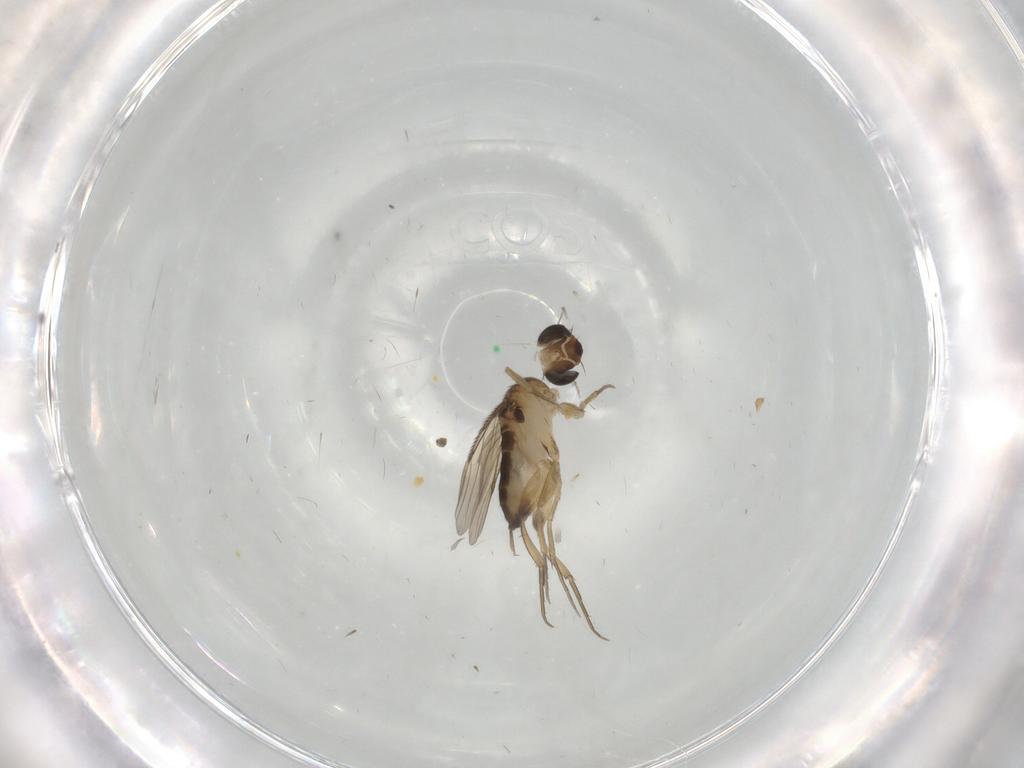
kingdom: Animalia
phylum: Arthropoda
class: Insecta
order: Diptera
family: Phoridae
